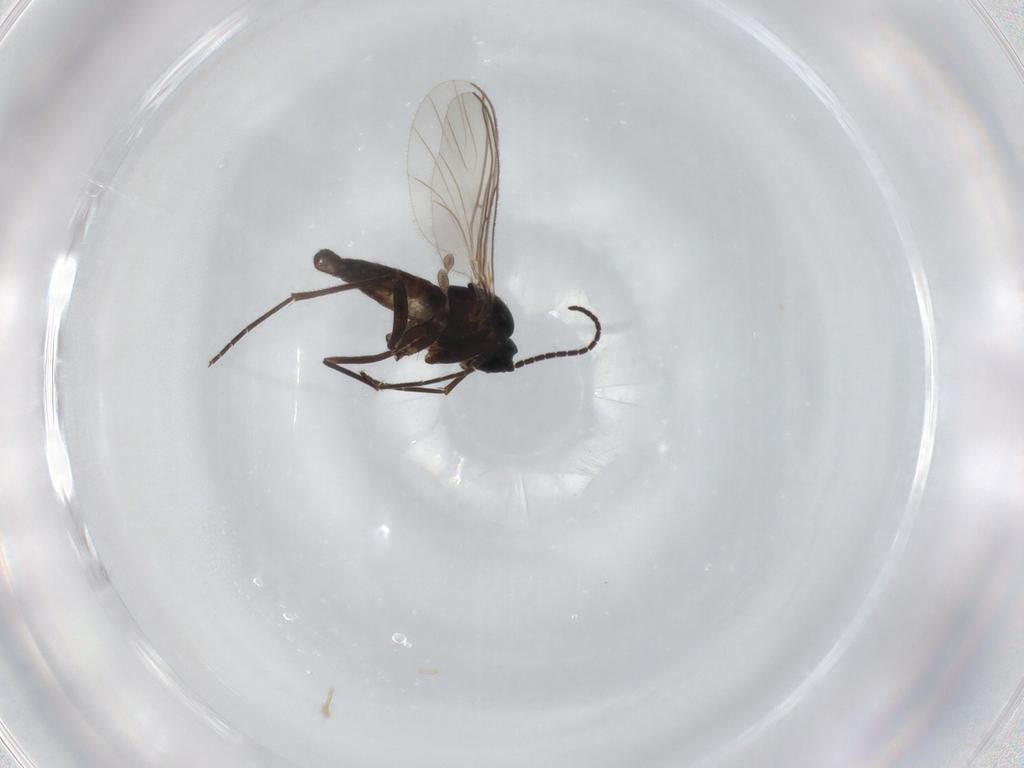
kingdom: Animalia
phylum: Arthropoda
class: Insecta
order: Diptera
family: Sciaridae
